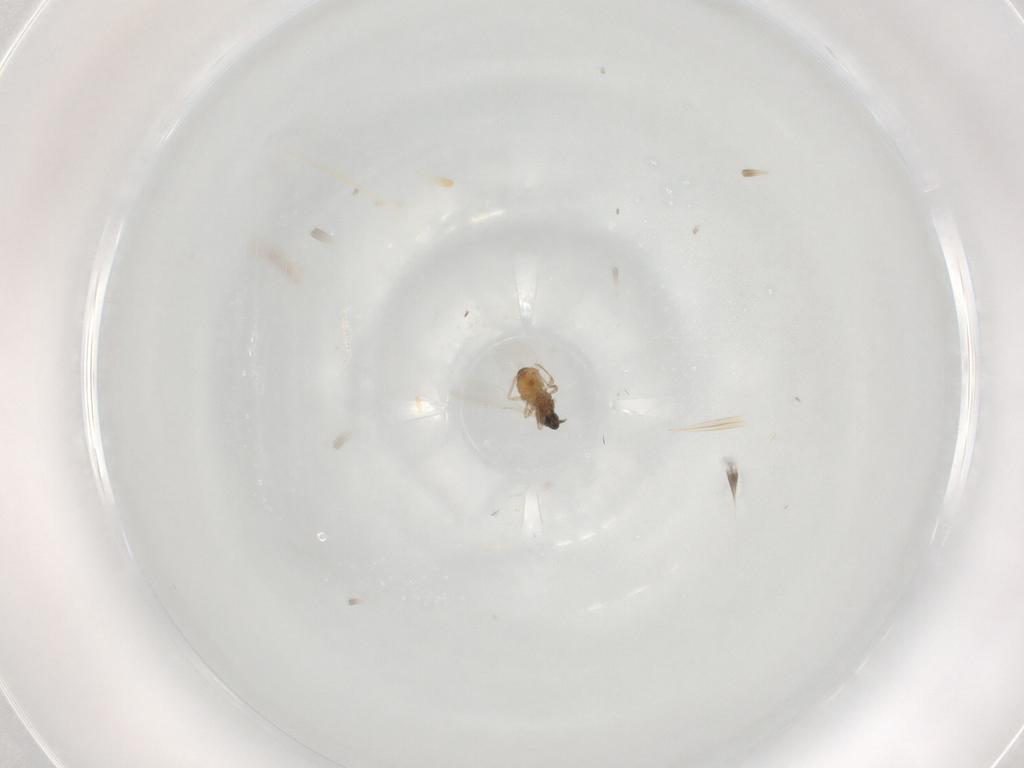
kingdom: Animalia
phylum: Arthropoda
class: Insecta
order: Diptera
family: Cecidomyiidae
